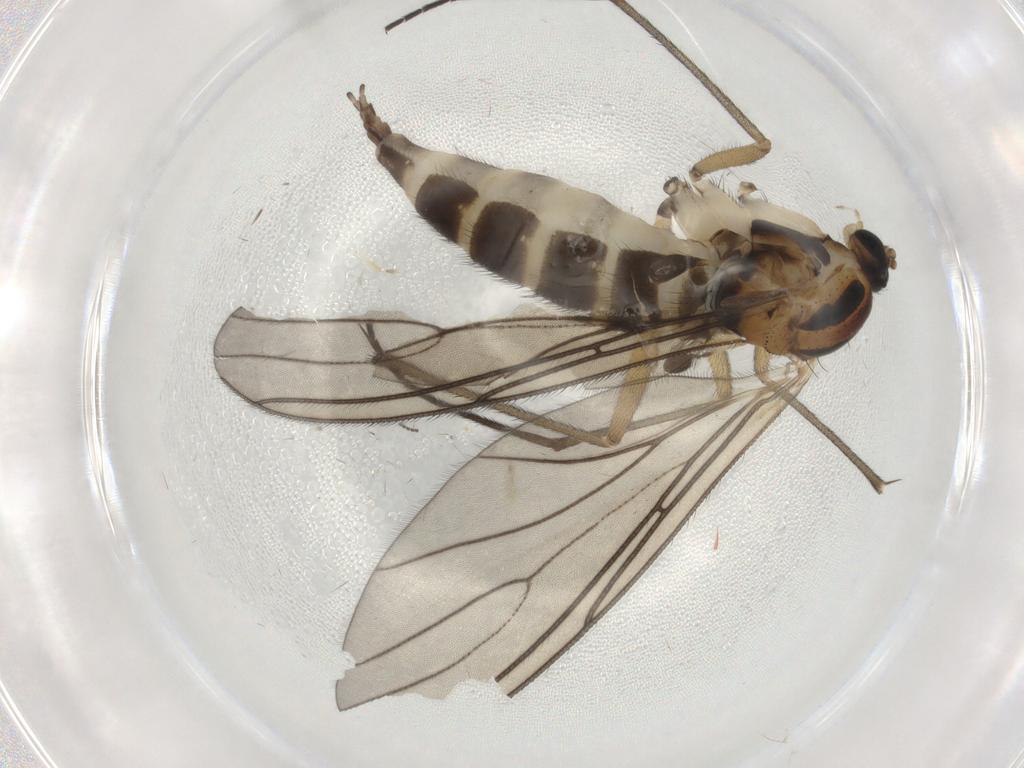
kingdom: Animalia
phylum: Arthropoda
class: Insecta
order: Diptera
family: Sciaridae
